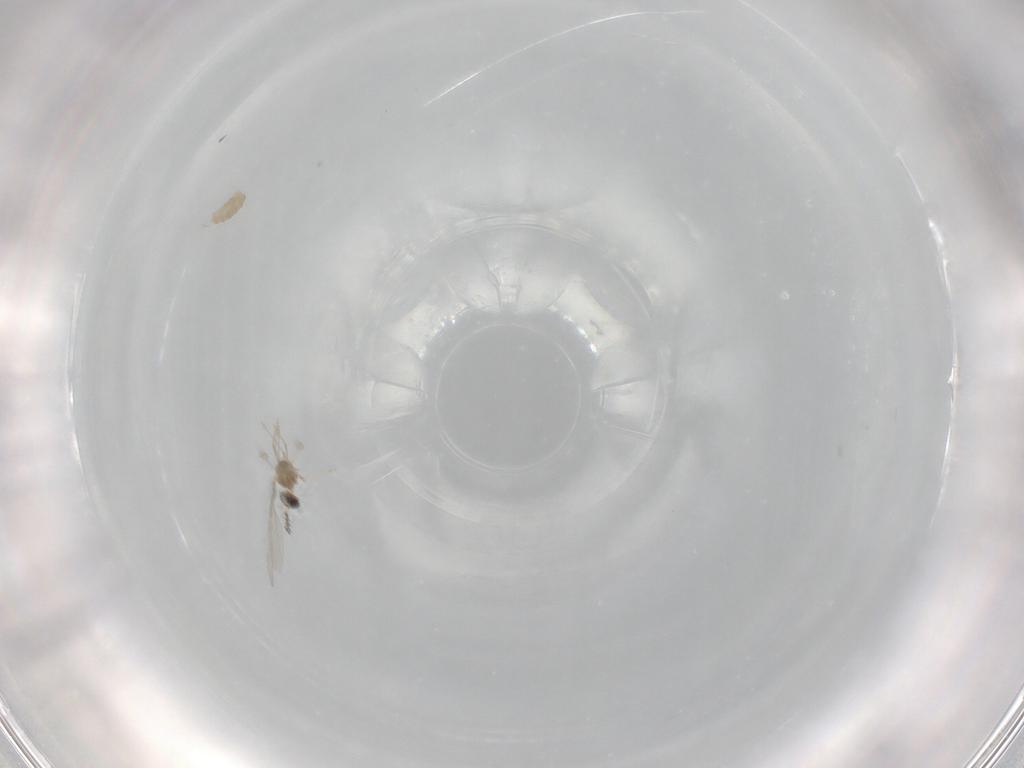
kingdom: Animalia
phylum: Arthropoda
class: Insecta
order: Diptera
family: Cecidomyiidae
